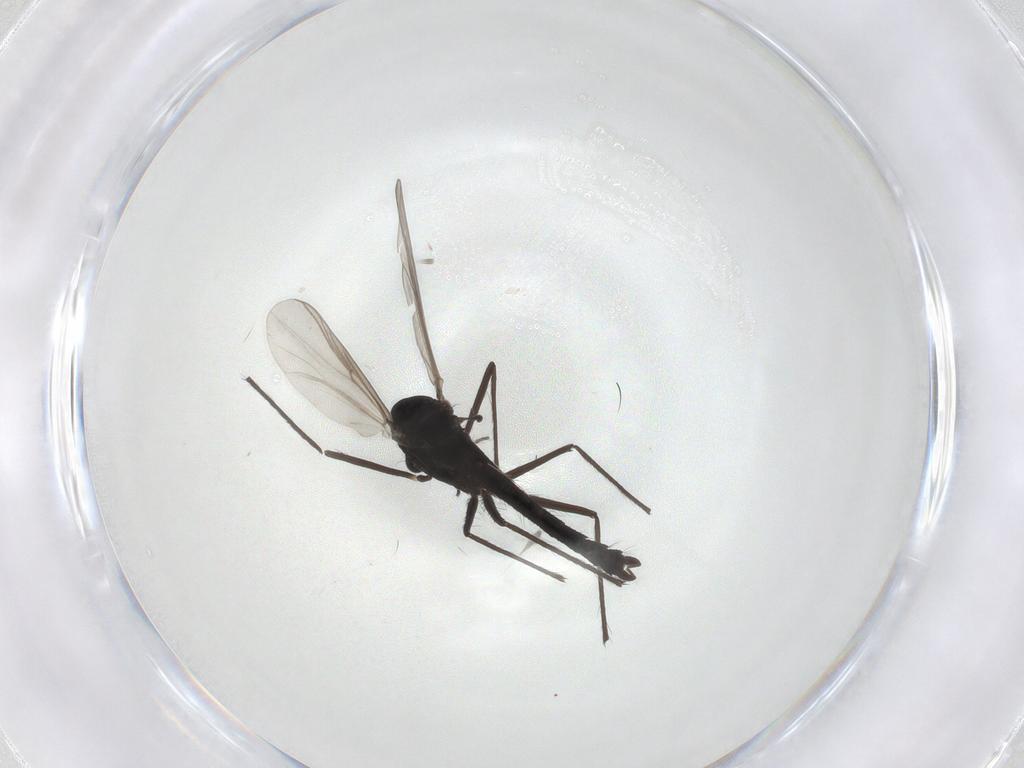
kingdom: Animalia
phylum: Arthropoda
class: Insecta
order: Diptera
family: Chironomidae
